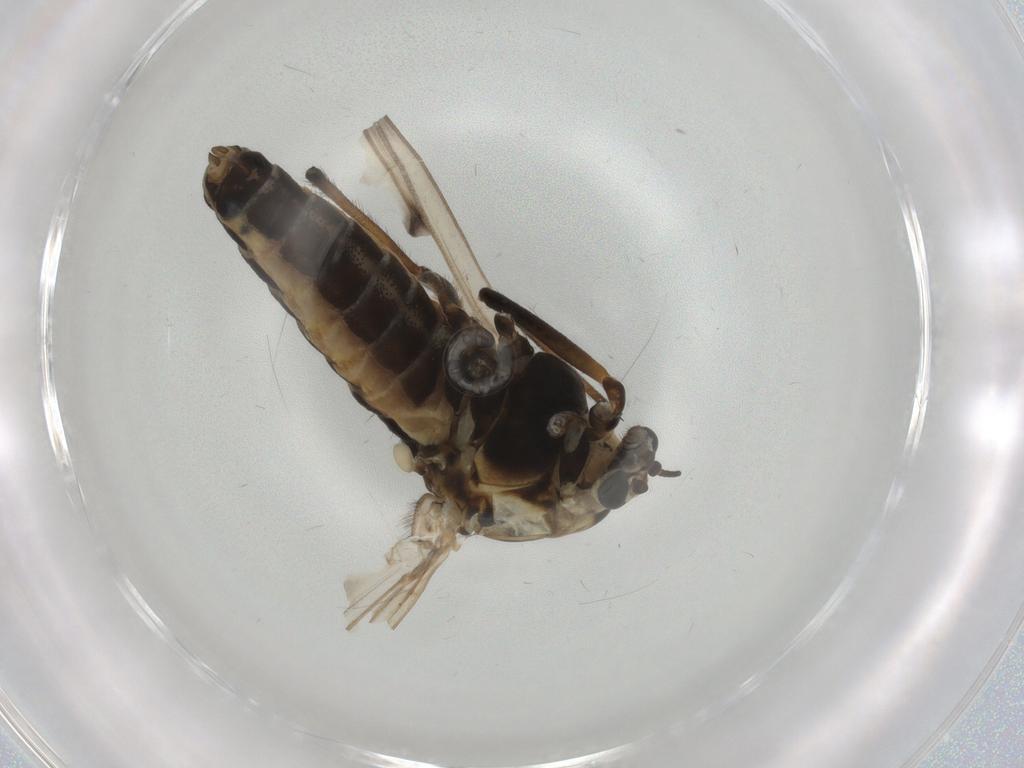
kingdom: Animalia
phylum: Arthropoda
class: Insecta
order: Diptera
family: Chironomidae
